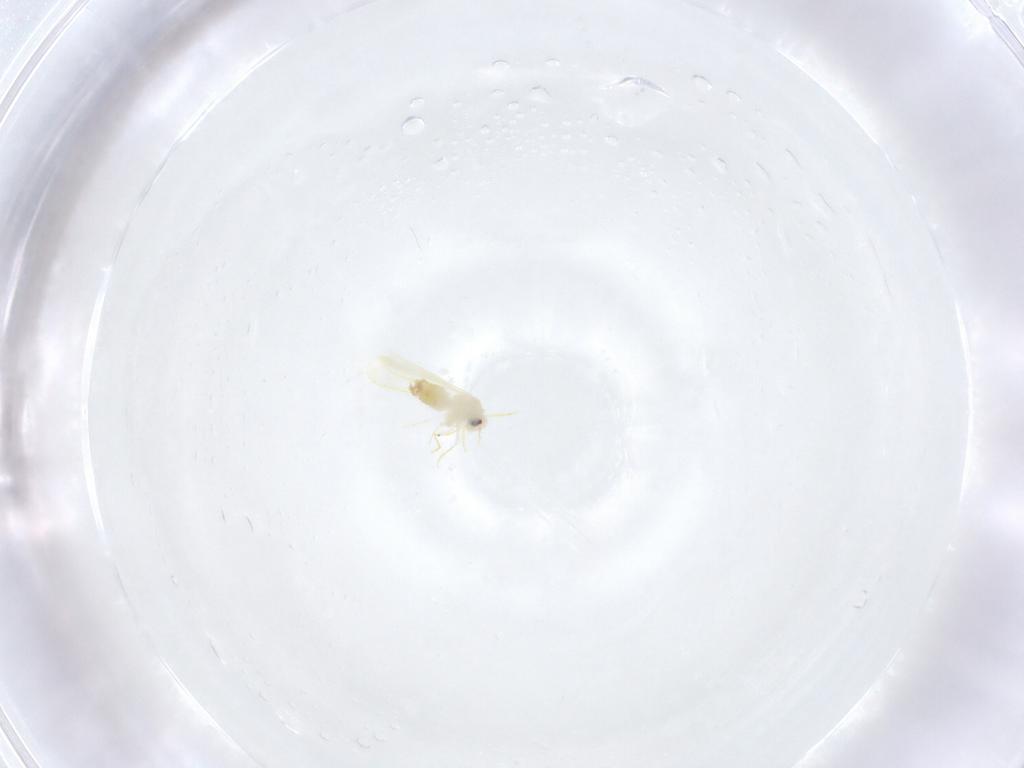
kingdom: Animalia
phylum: Arthropoda
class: Insecta
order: Hemiptera
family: Aleyrodidae
